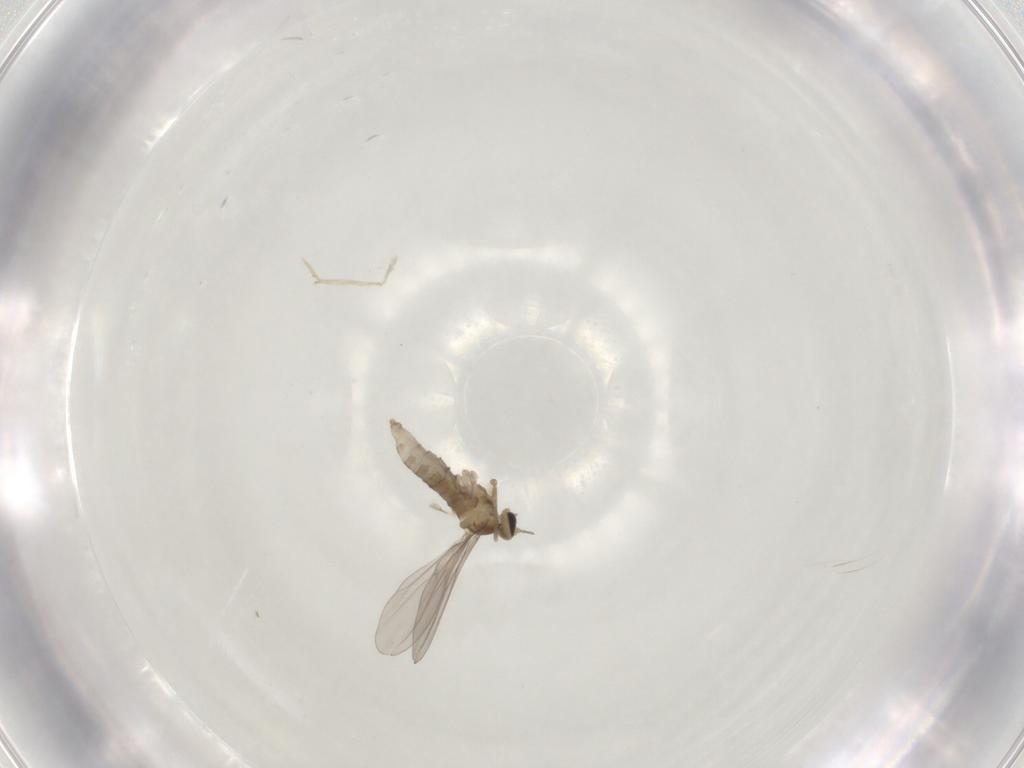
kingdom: Animalia
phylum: Arthropoda
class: Insecta
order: Diptera
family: Cecidomyiidae
